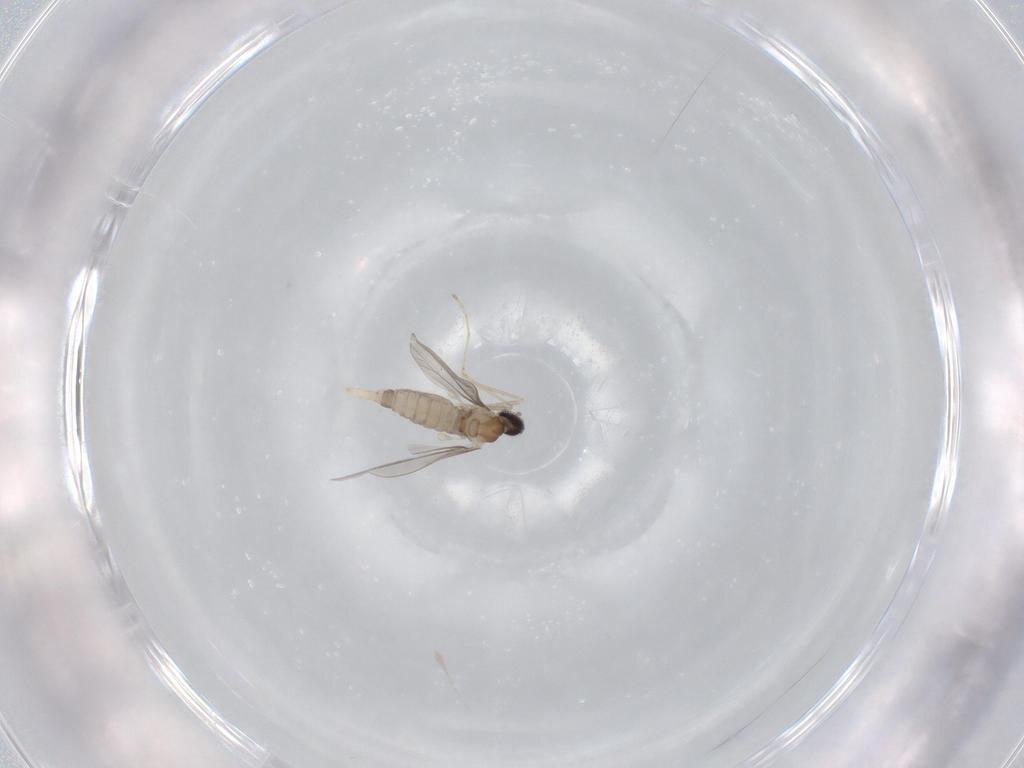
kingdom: Animalia
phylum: Arthropoda
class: Insecta
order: Diptera
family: Cecidomyiidae
